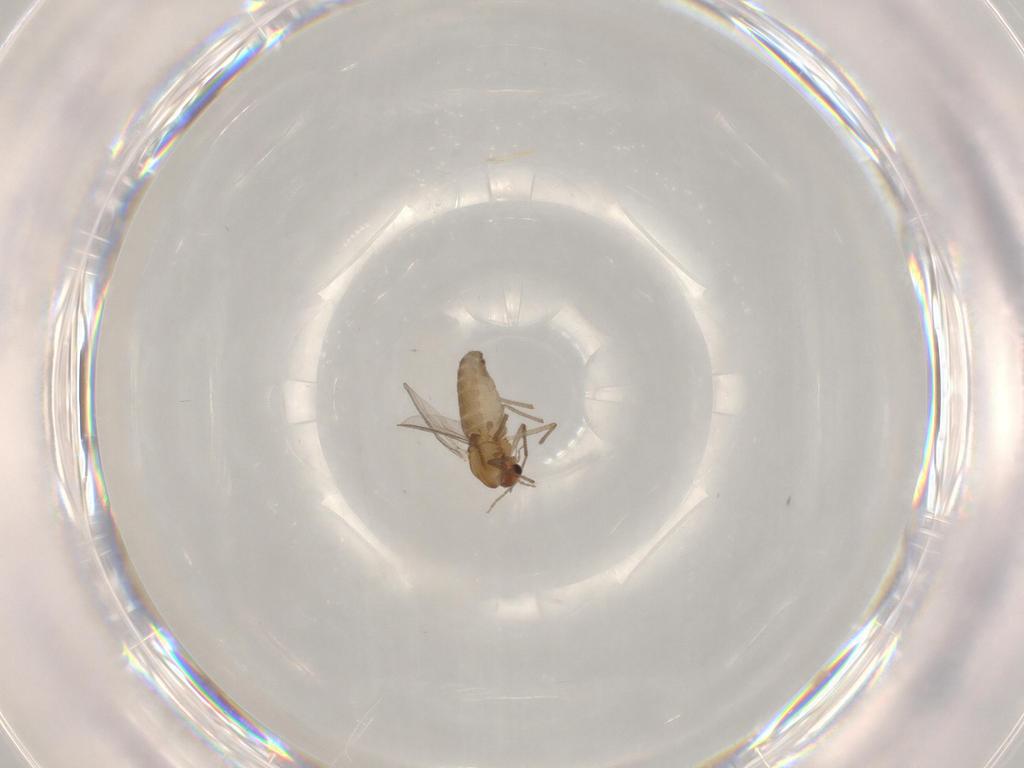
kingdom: Animalia
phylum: Arthropoda
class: Insecta
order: Diptera
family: Chironomidae
